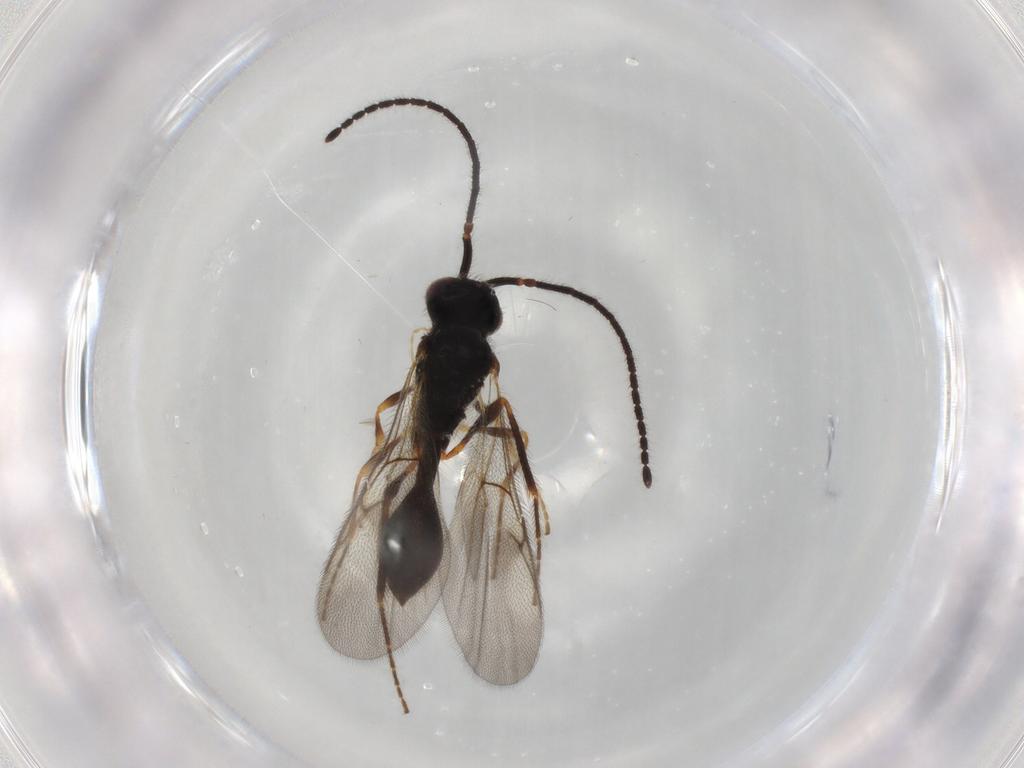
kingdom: Animalia
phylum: Arthropoda
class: Insecta
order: Hymenoptera
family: Diapriidae
